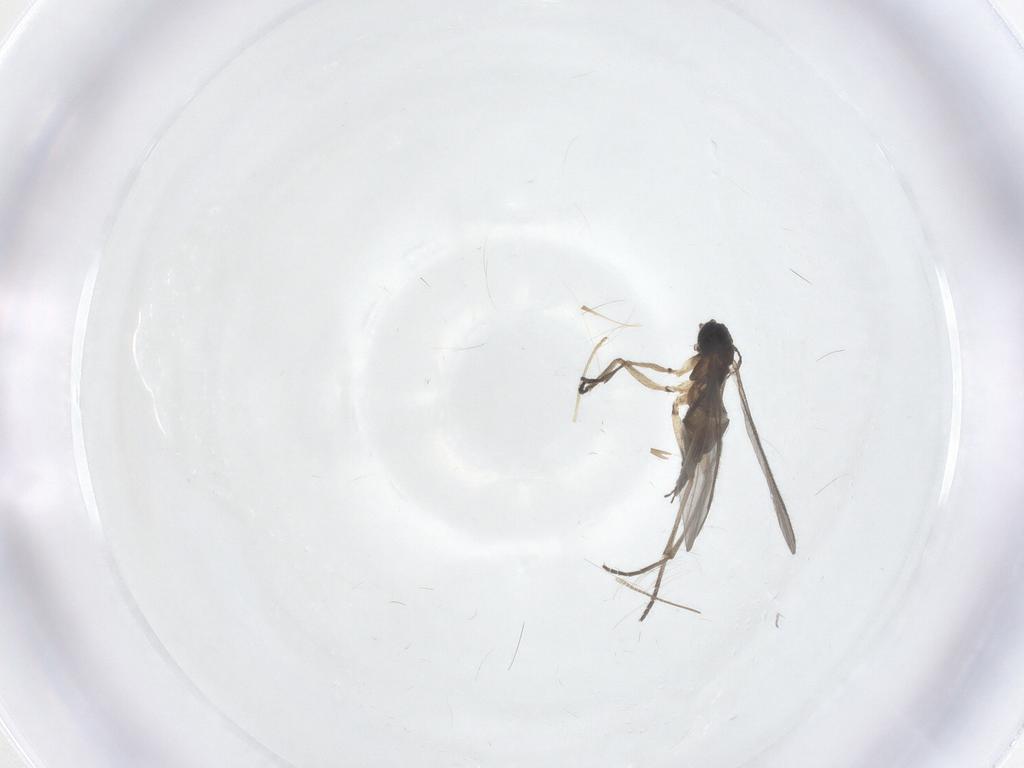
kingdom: Animalia
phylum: Arthropoda
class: Insecta
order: Diptera
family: Sciaridae
